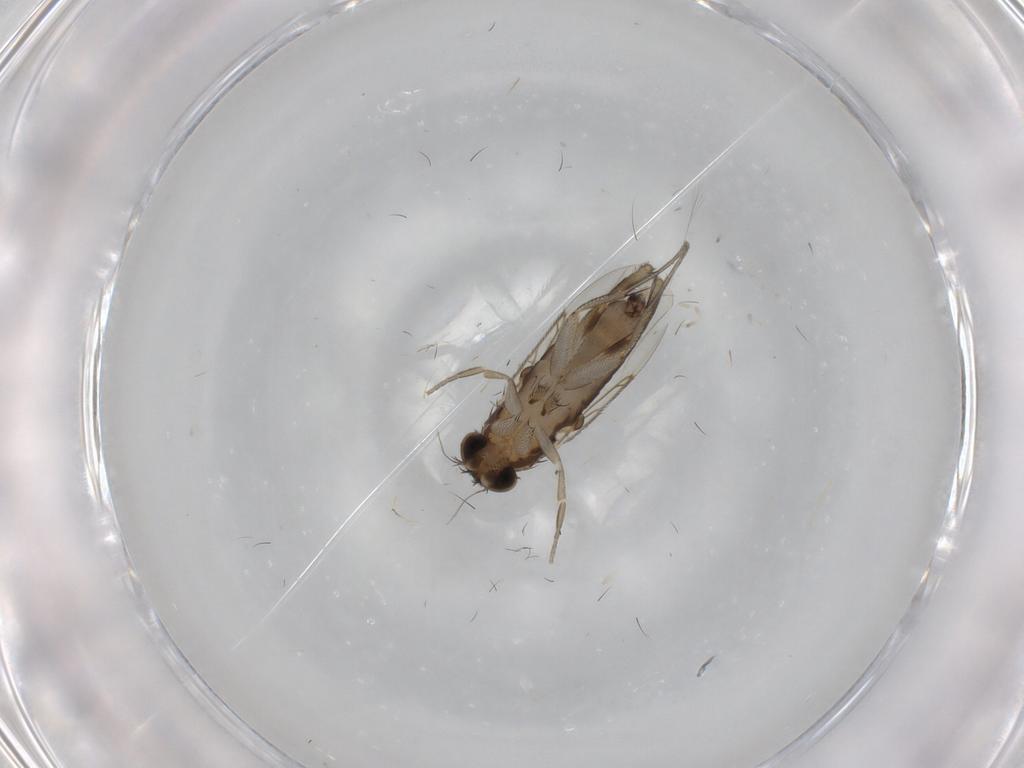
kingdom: Animalia
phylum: Arthropoda
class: Insecta
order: Diptera
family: Phoridae
